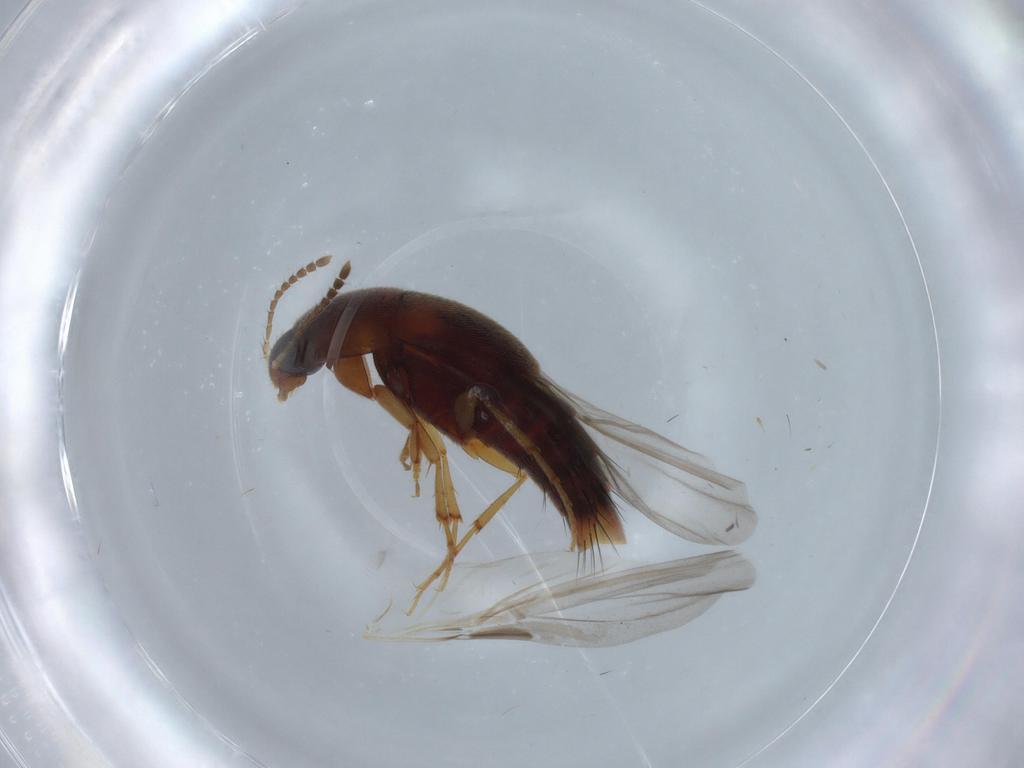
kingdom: Animalia
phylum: Arthropoda
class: Insecta
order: Coleoptera
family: Staphylinidae
